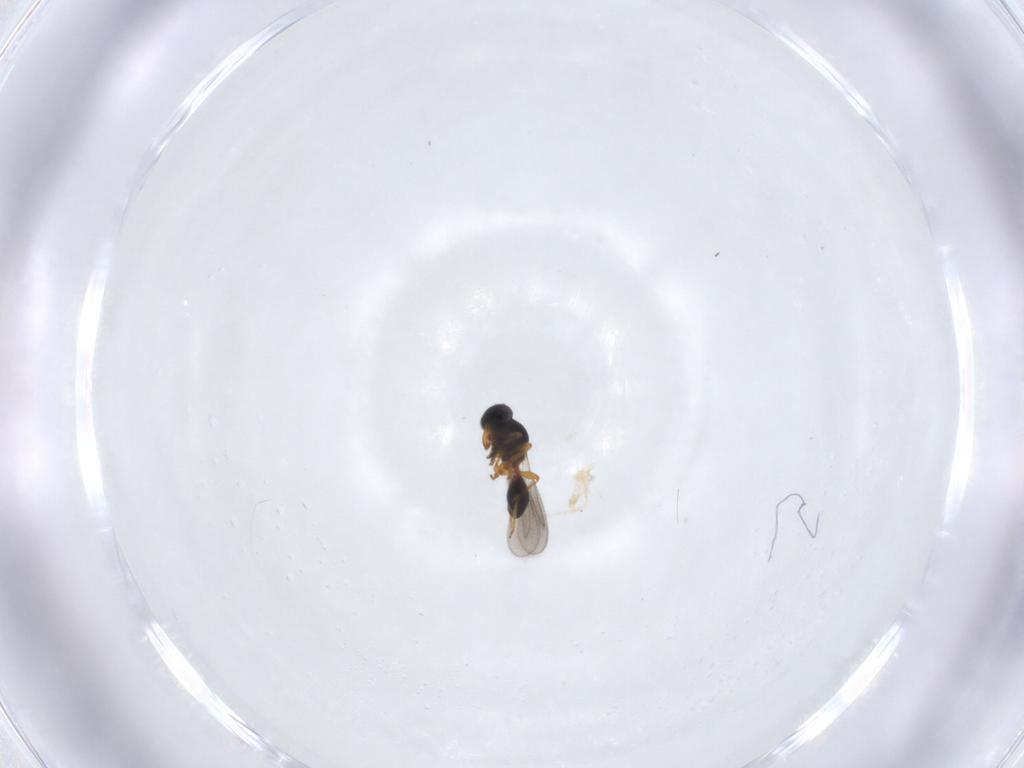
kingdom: Animalia
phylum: Arthropoda
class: Insecta
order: Hymenoptera
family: Platygastridae
